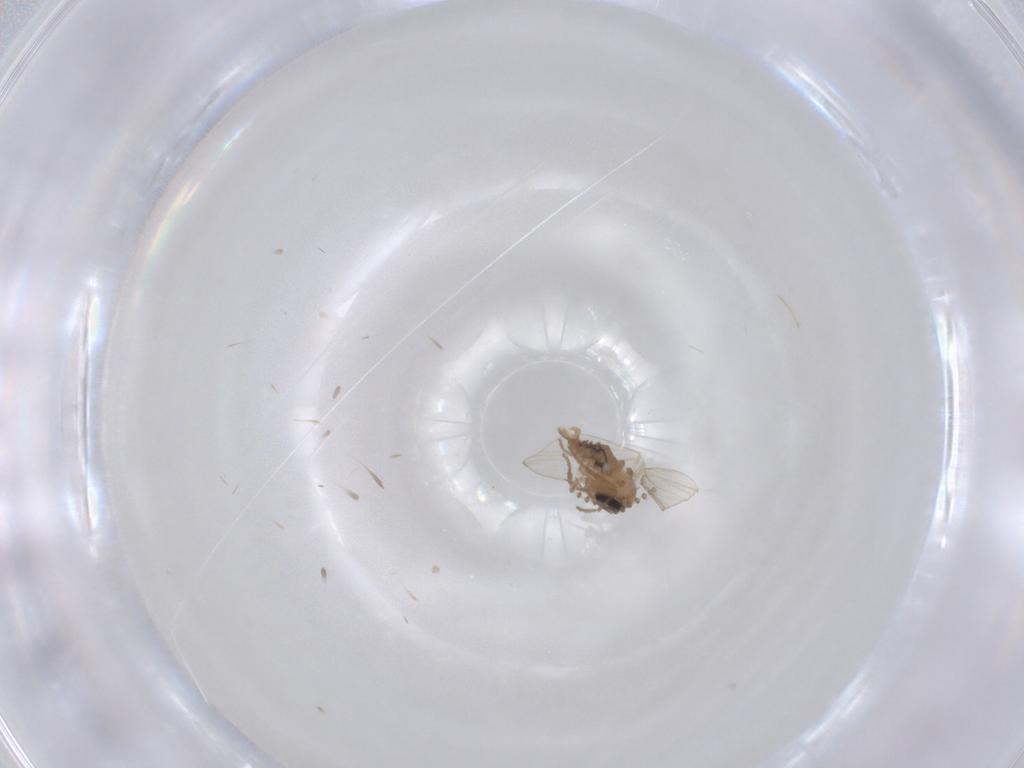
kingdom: Animalia
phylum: Arthropoda
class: Insecta
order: Diptera
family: Psychodidae
